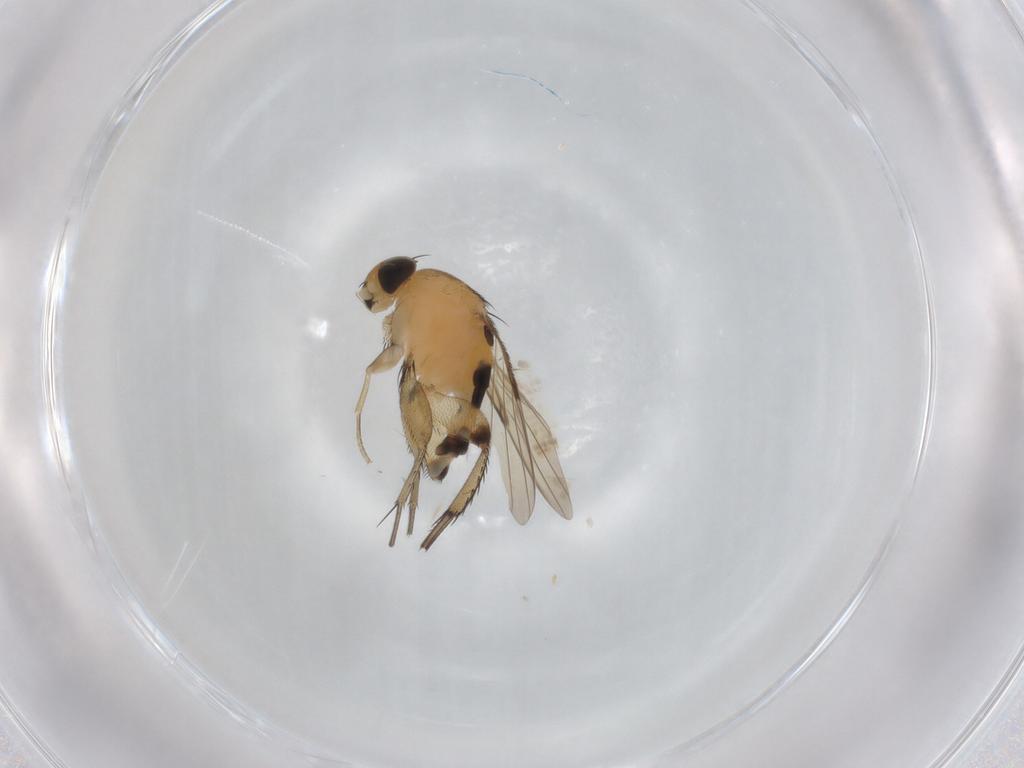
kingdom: Animalia
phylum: Arthropoda
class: Insecta
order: Diptera
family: Phoridae
